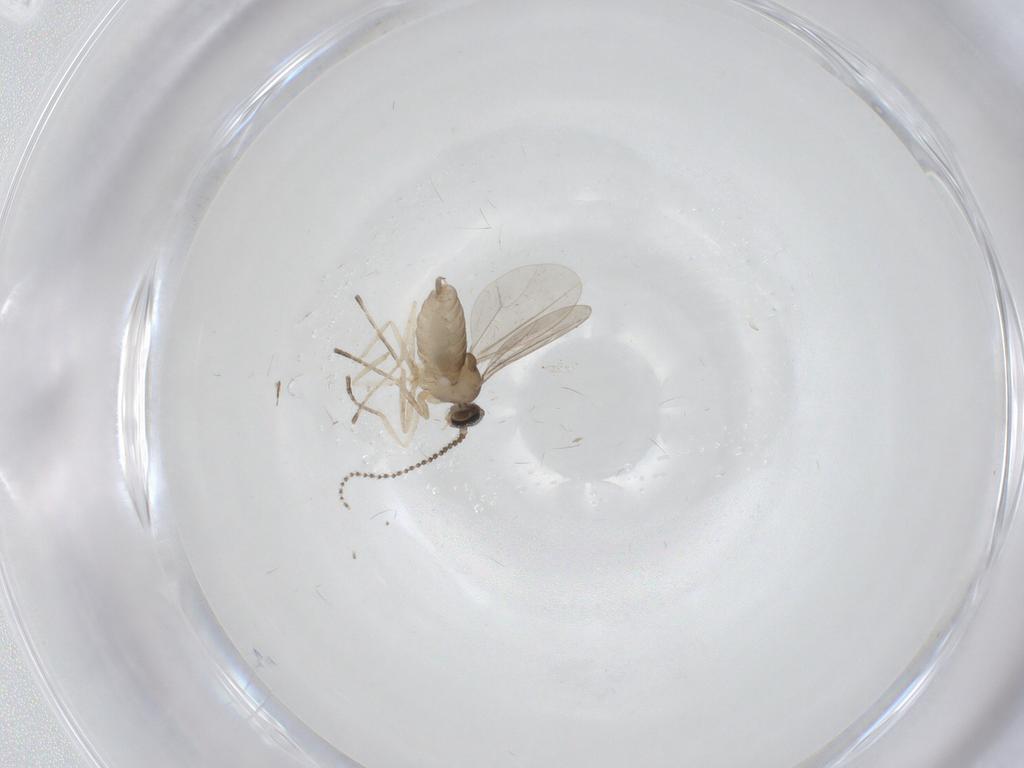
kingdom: Animalia
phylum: Arthropoda
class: Insecta
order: Diptera
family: Cecidomyiidae
